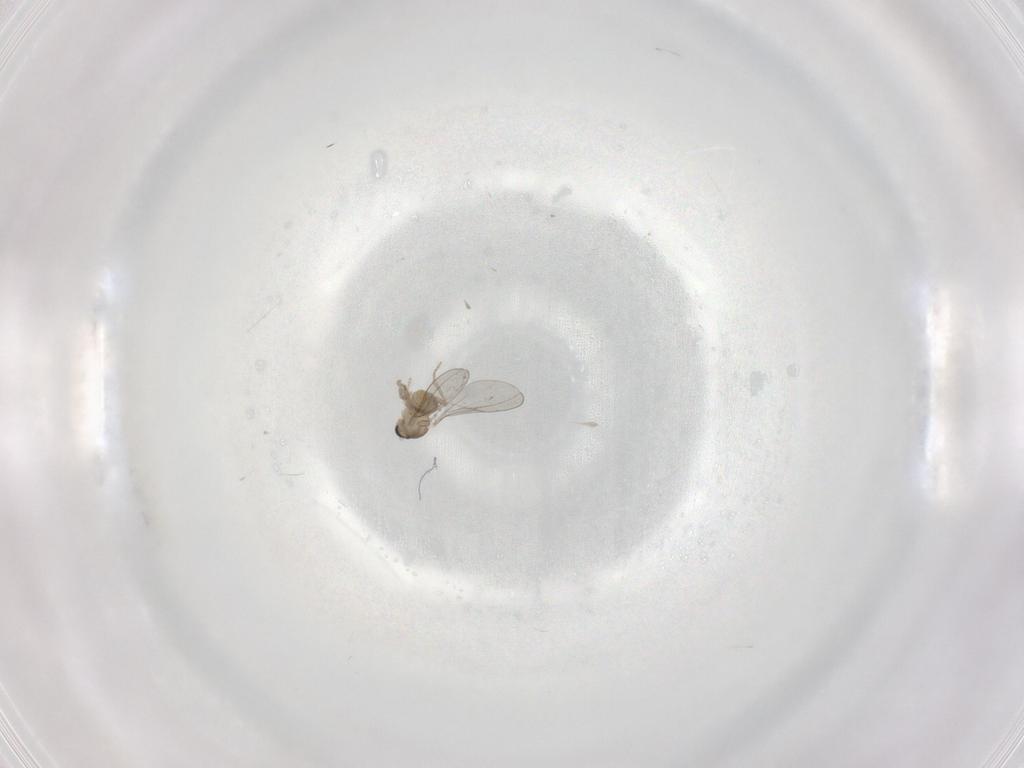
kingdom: Animalia
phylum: Arthropoda
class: Insecta
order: Diptera
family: Cecidomyiidae
